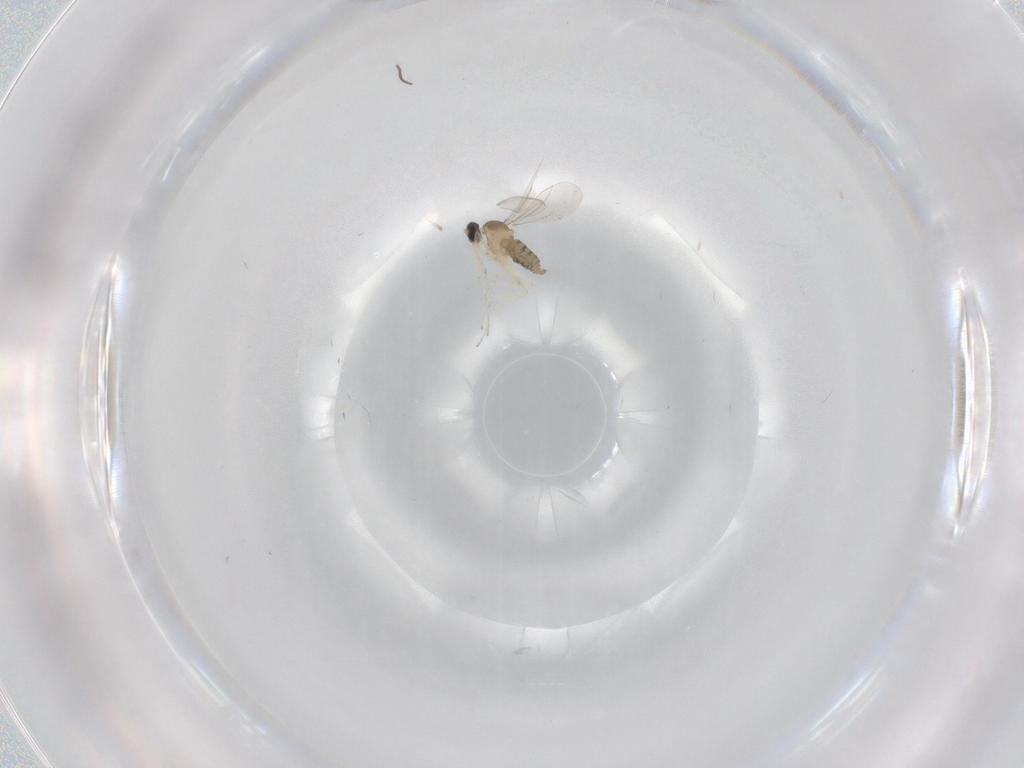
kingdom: Animalia
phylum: Arthropoda
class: Insecta
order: Diptera
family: Cecidomyiidae
